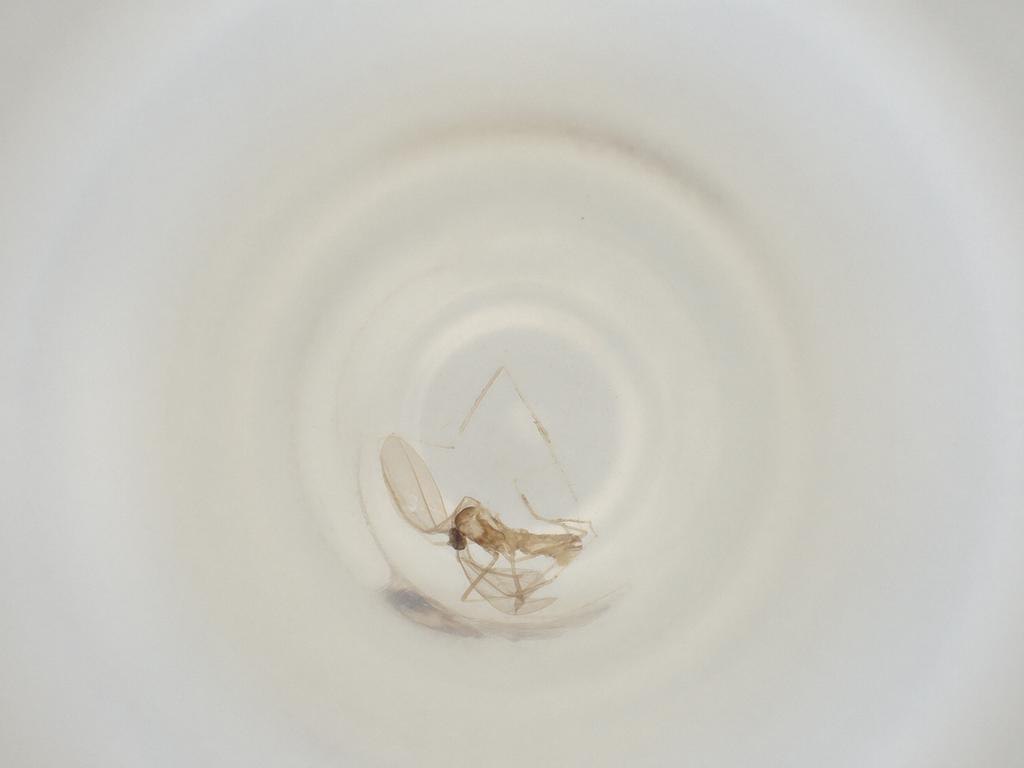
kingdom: Animalia
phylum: Arthropoda
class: Insecta
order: Diptera
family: Cecidomyiidae
